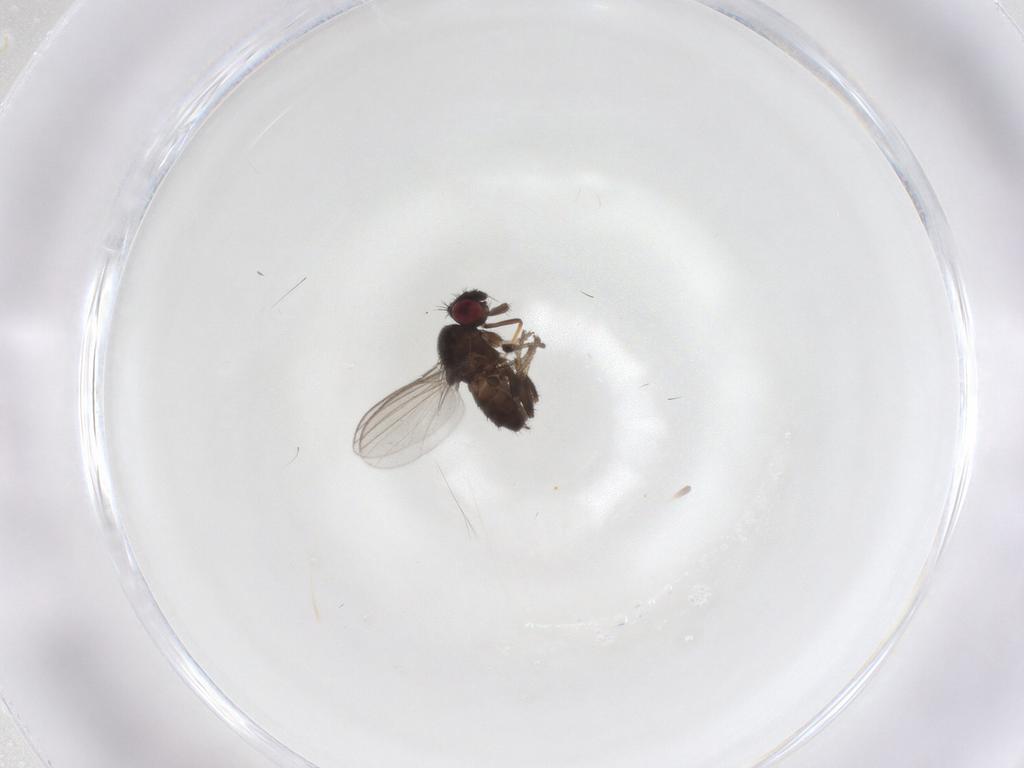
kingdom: Animalia
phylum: Arthropoda
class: Insecta
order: Diptera
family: Milichiidae
